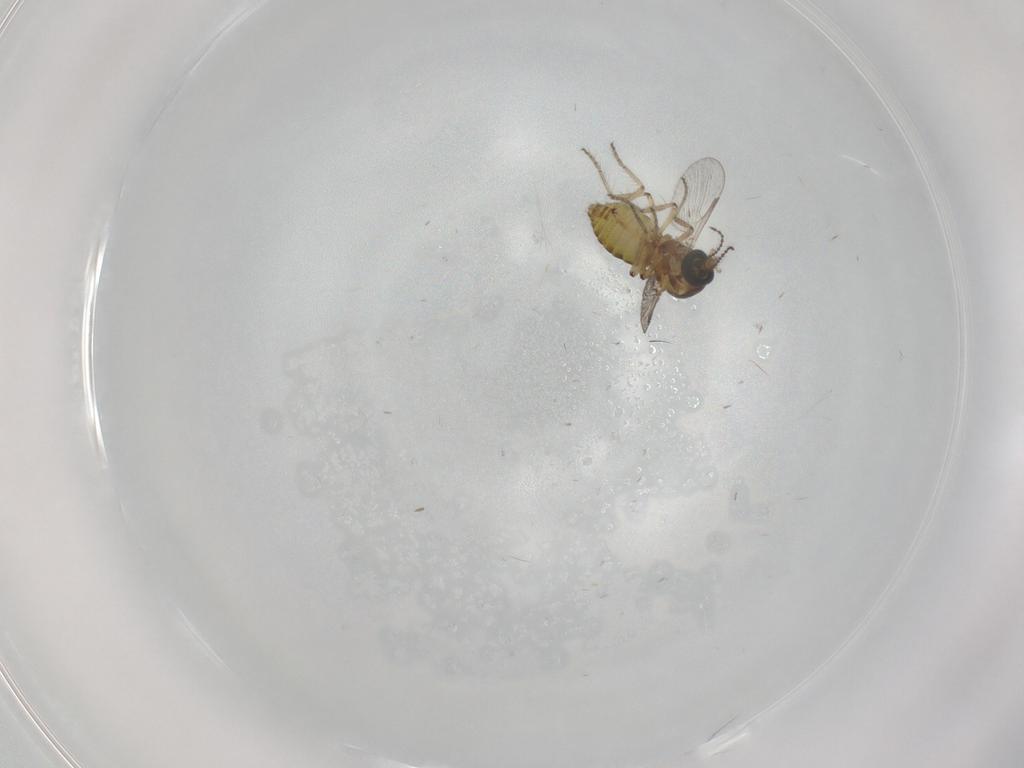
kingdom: Animalia
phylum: Arthropoda
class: Insecta
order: Diptera
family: Ceratopogonidae
